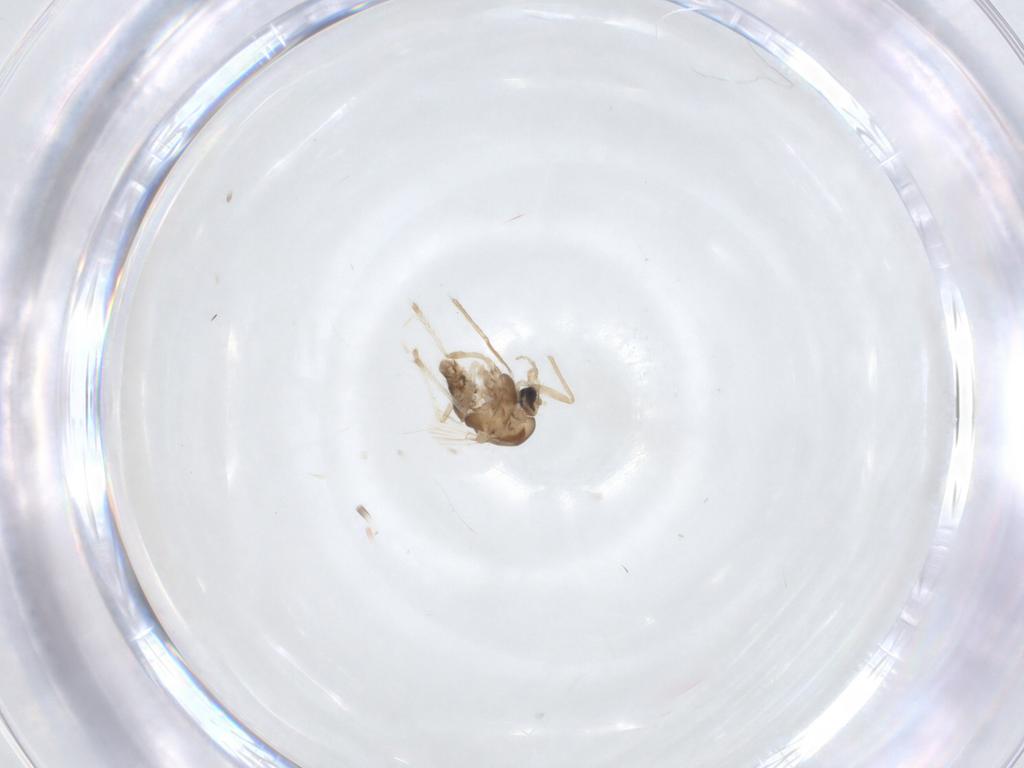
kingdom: Animalia
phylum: Arthropoda
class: Insecta
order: Diptera
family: Chironomidae
